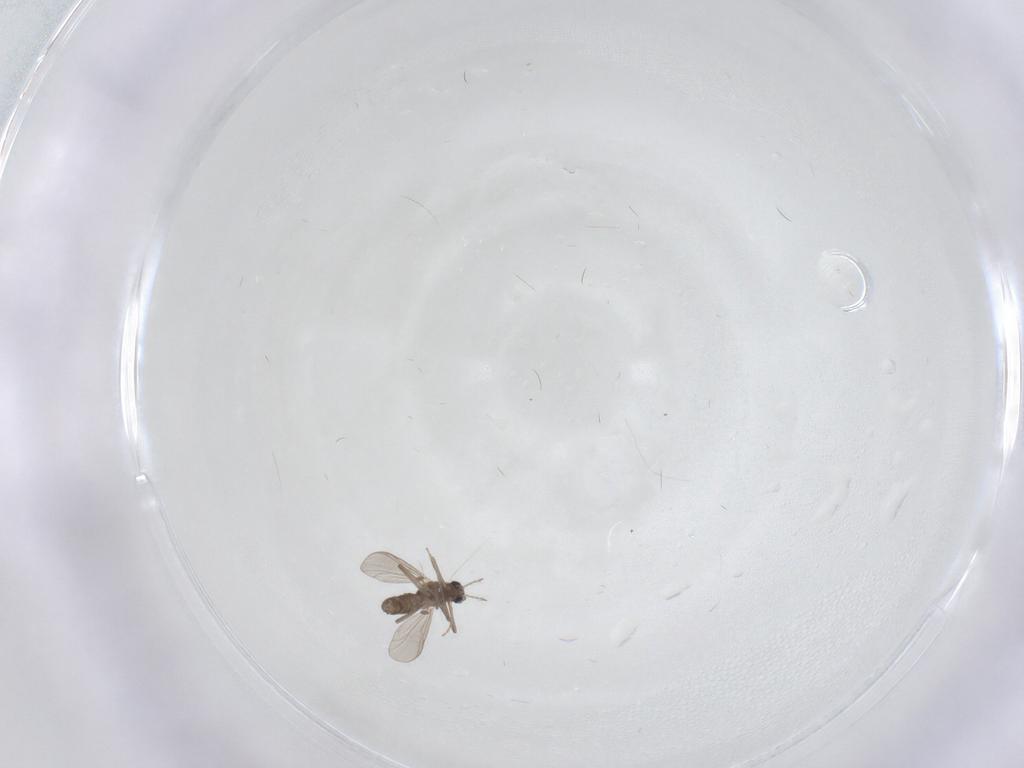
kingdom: Animalia
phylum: Arthropoda
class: Insecta
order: Diptera
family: Chironomidae
